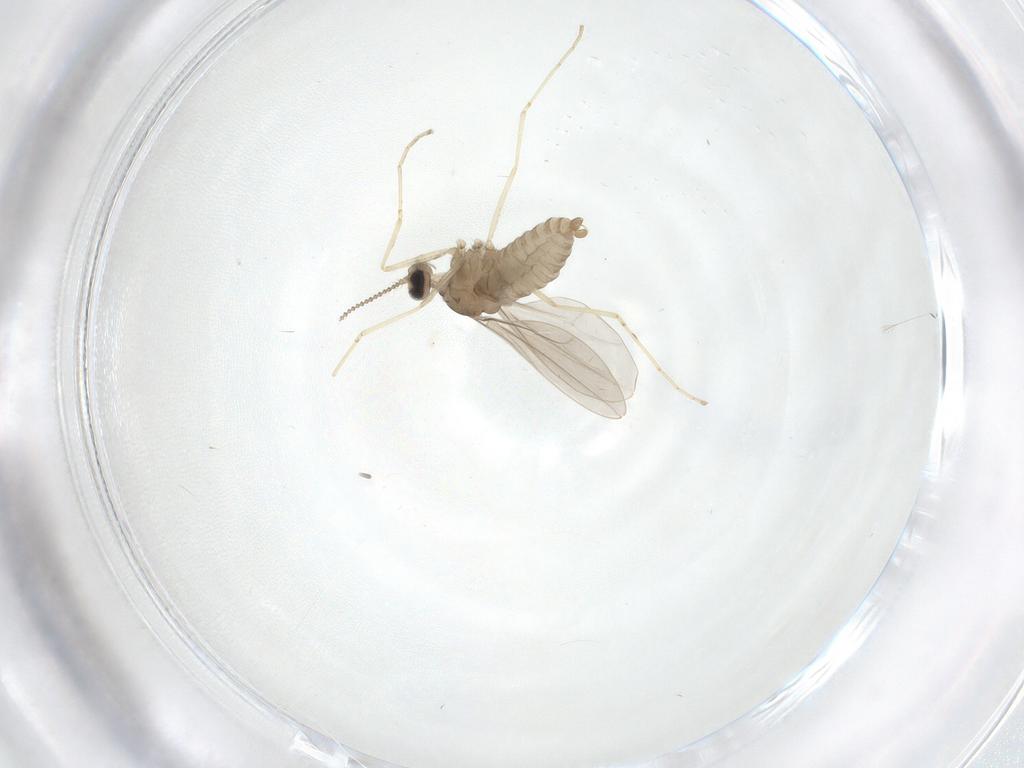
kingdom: Animalia
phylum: Arthropoda
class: Insecta
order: Diptera
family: Cecidomyiidae
